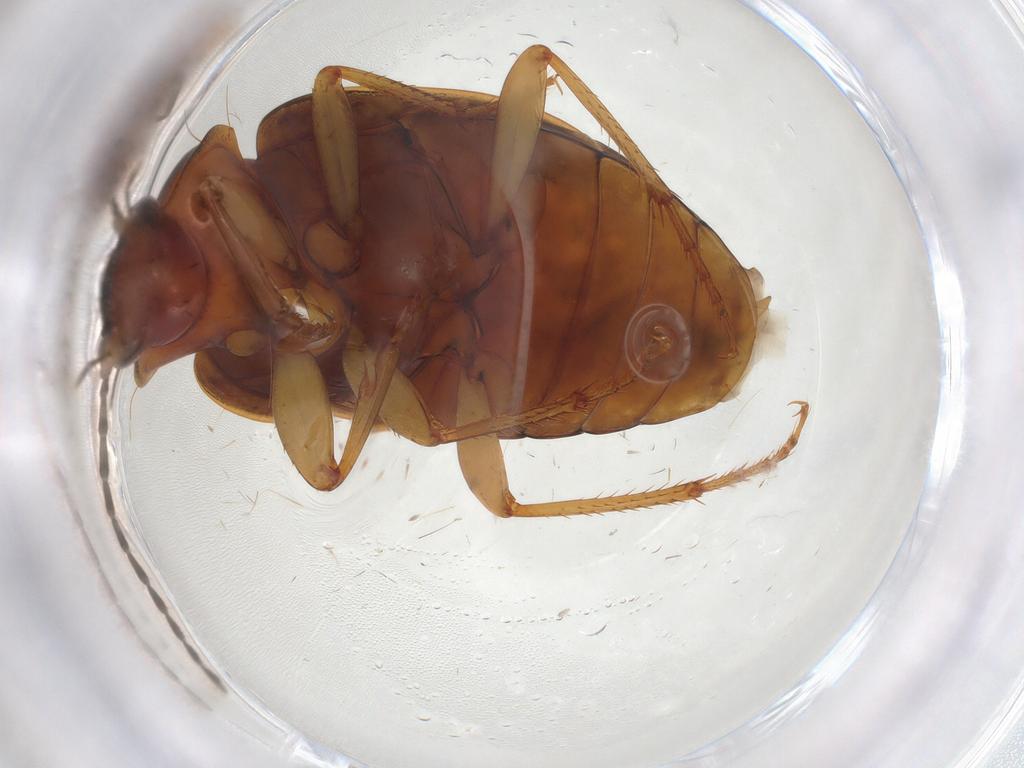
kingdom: Animalia
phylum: Arthropoda
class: Insecta
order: Coleoptera
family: Carabidae
